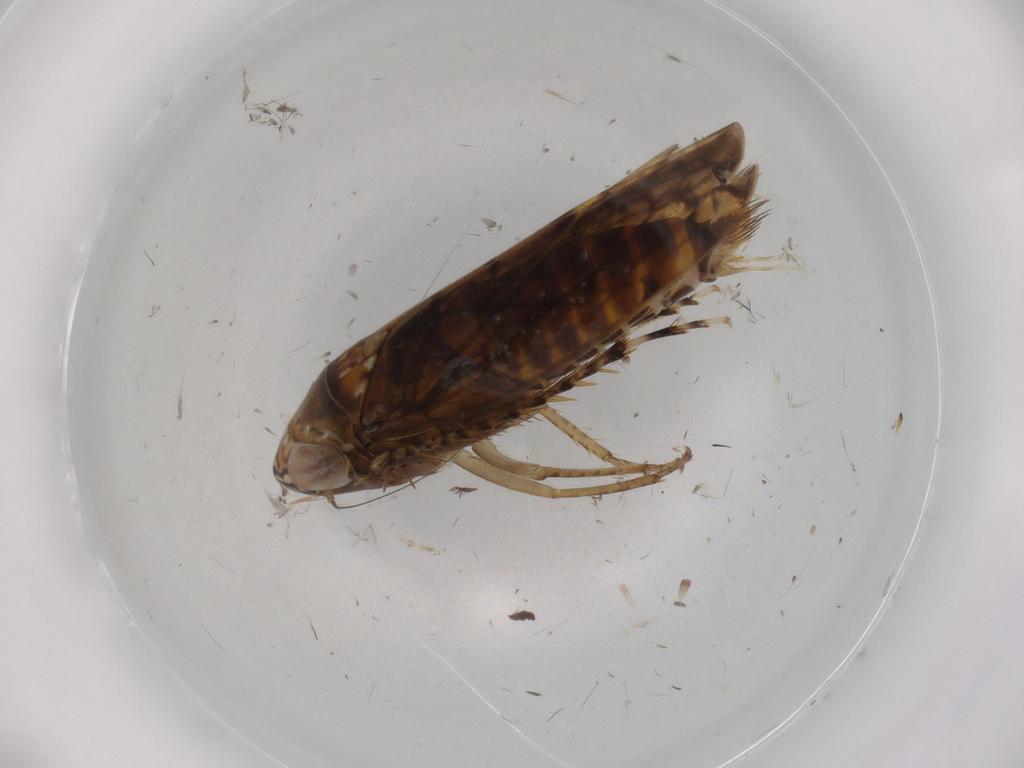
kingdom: Animalia
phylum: Arthropoda
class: Insecta
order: Hemiptera
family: Cicadellidae
